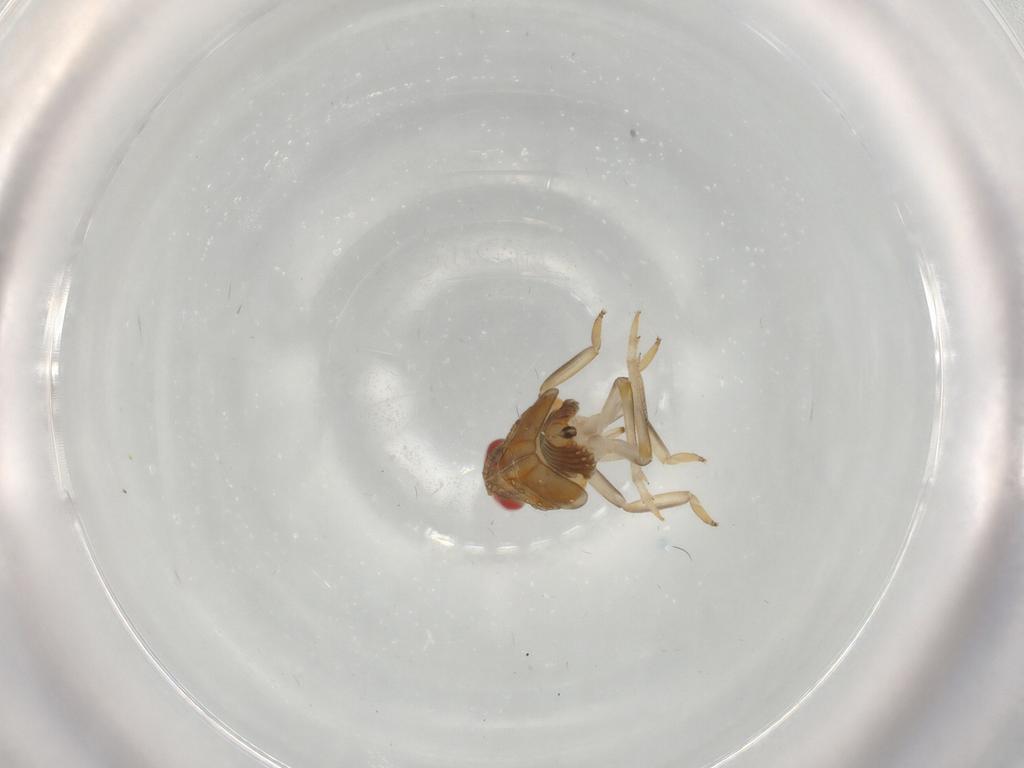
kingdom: Animalia
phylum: Arthropoda
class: Insecta
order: Hemiptera
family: Issidae
